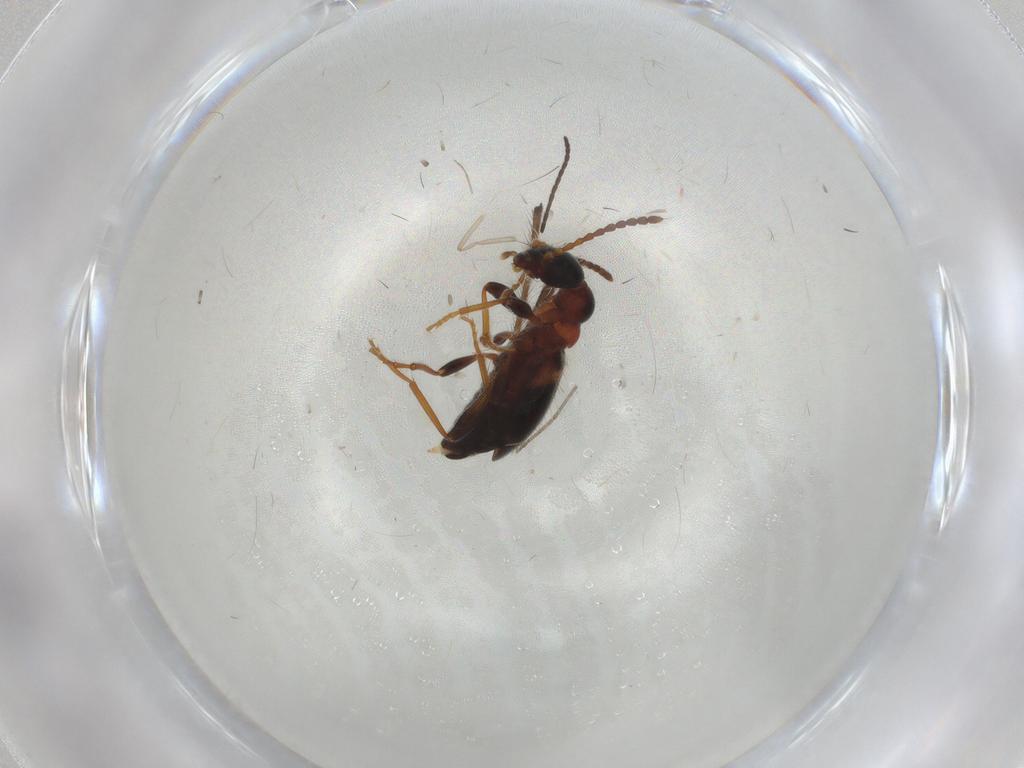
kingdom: Animalia
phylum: Arthropoda
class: Insecta
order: Coleoptera
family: Anthicidae
